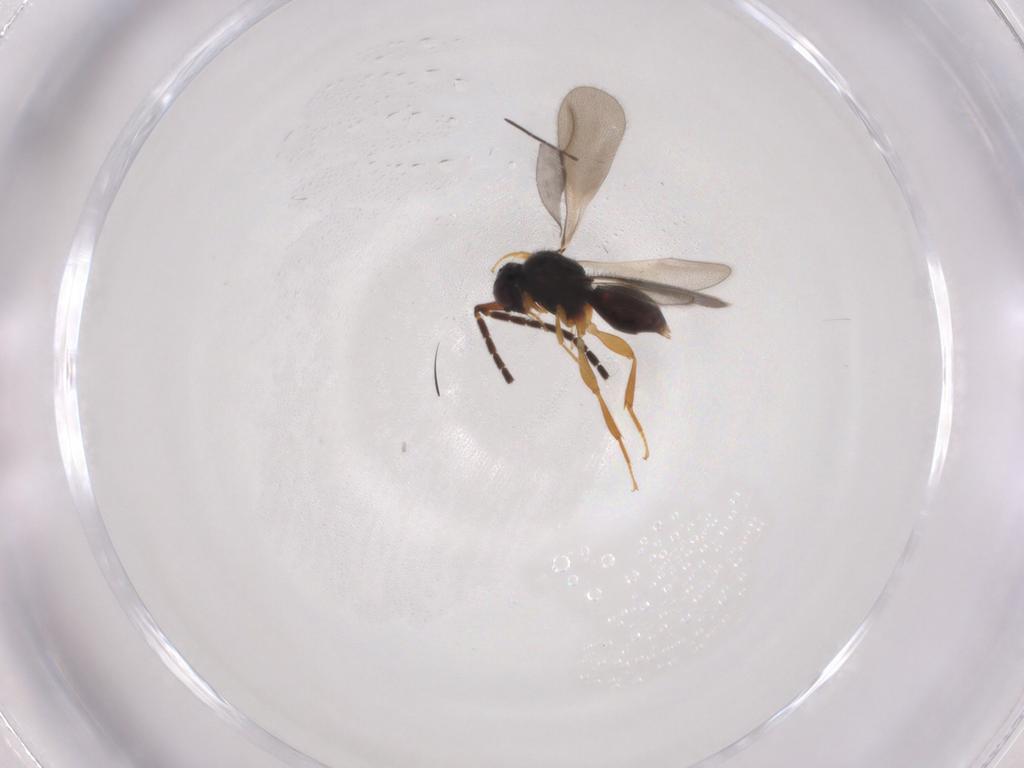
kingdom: Animalia
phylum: Arthropoda
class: Insecta
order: Hymenoptera
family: Ceraphronidae
